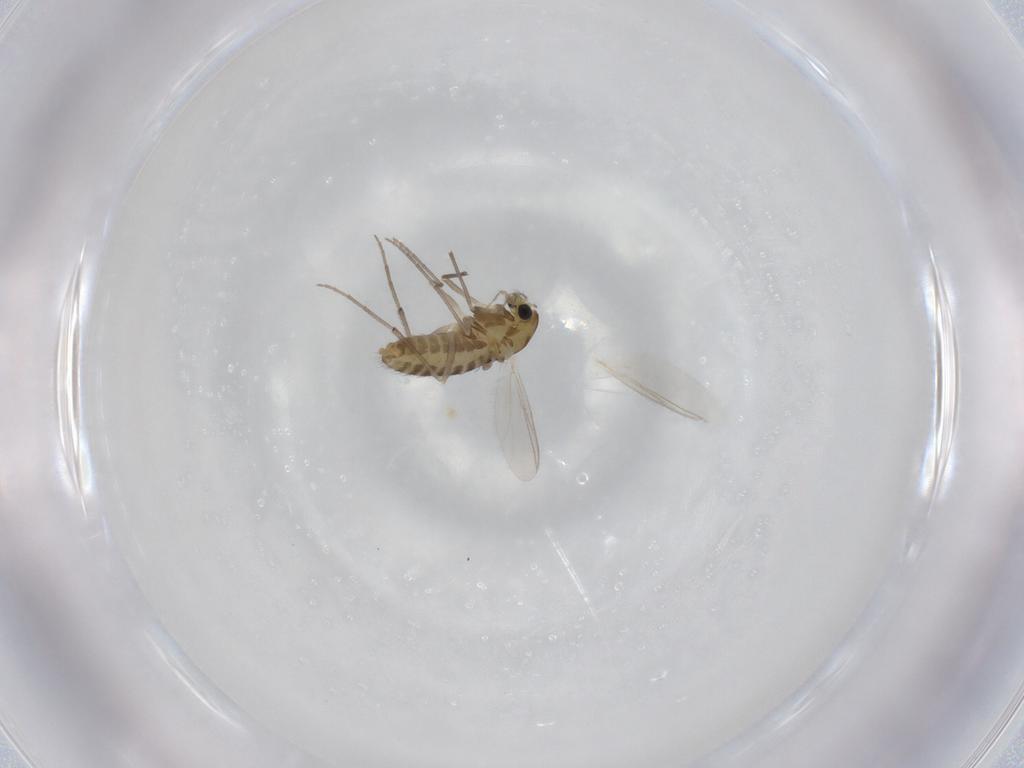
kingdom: Animalia
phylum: Arthropoda
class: Insecta
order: Diptera
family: Chironomidae
